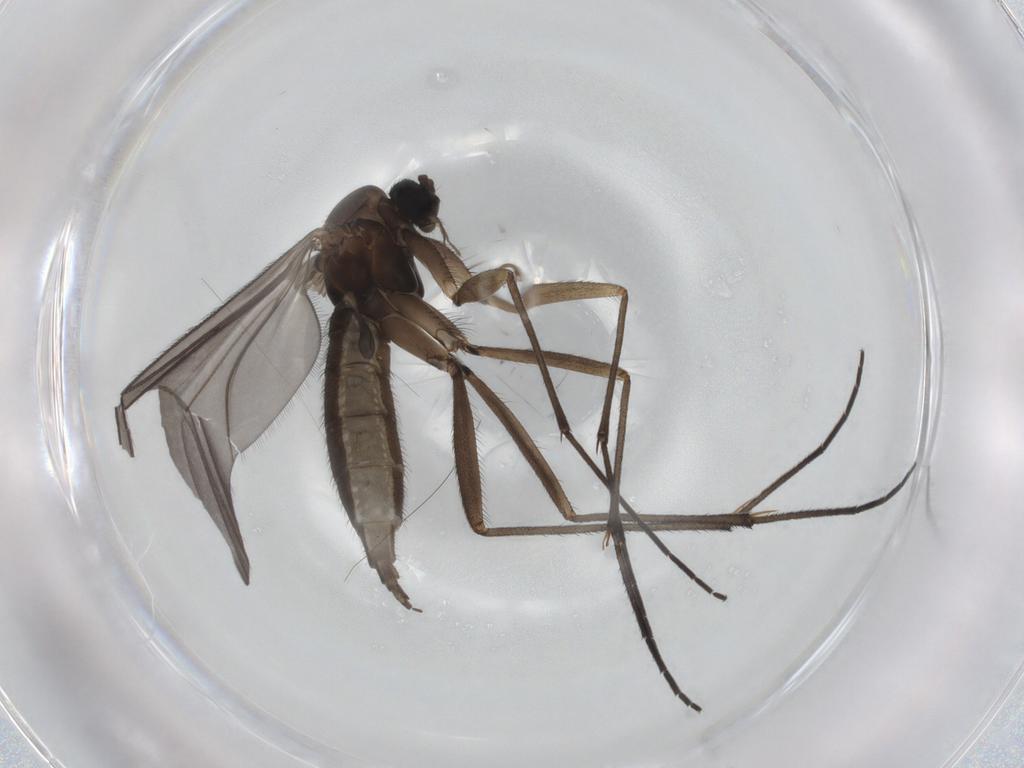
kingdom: Animalia
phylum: Arthropoda
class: Insecta
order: Diptera
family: Sciaridae
